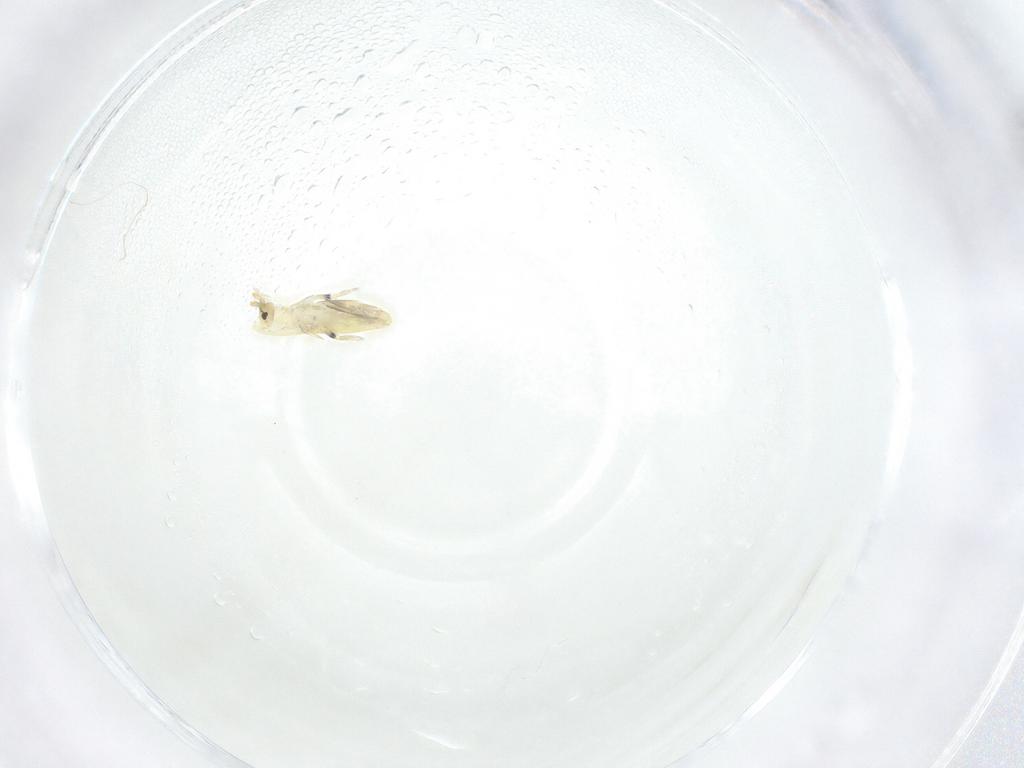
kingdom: Animalia
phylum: Arthropoda
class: Collembola
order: Entomobryomorpha
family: Entomobryidae
